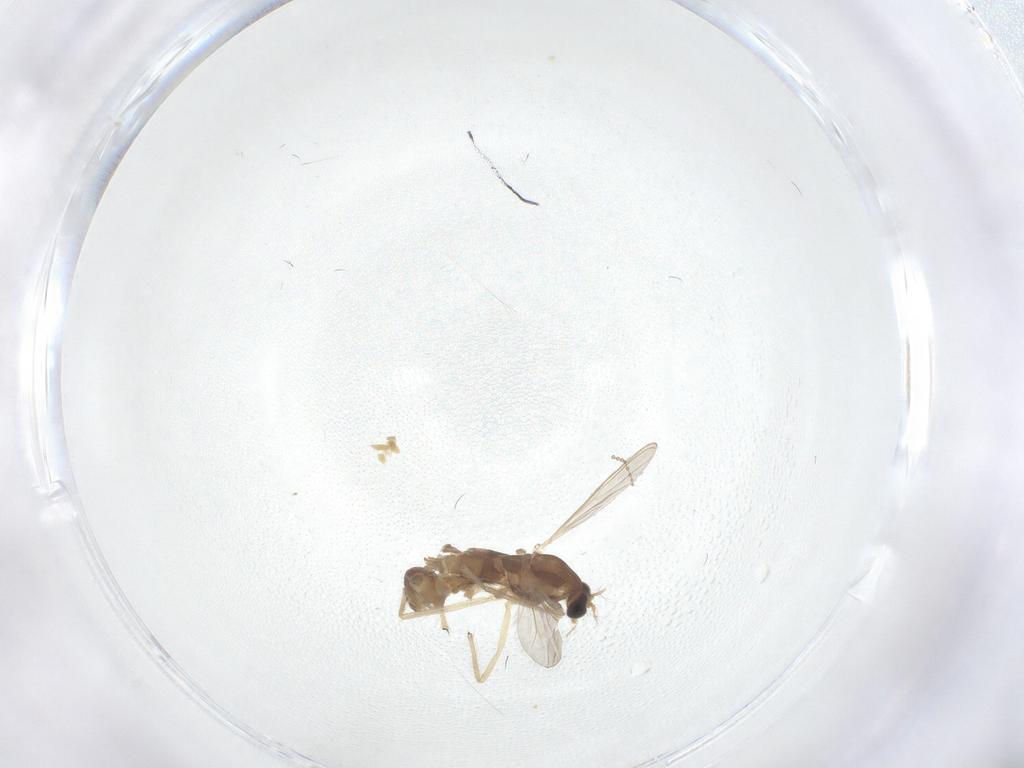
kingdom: Animalia
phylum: Arthropoda
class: Insecta
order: Diptera
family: Chironomidae
